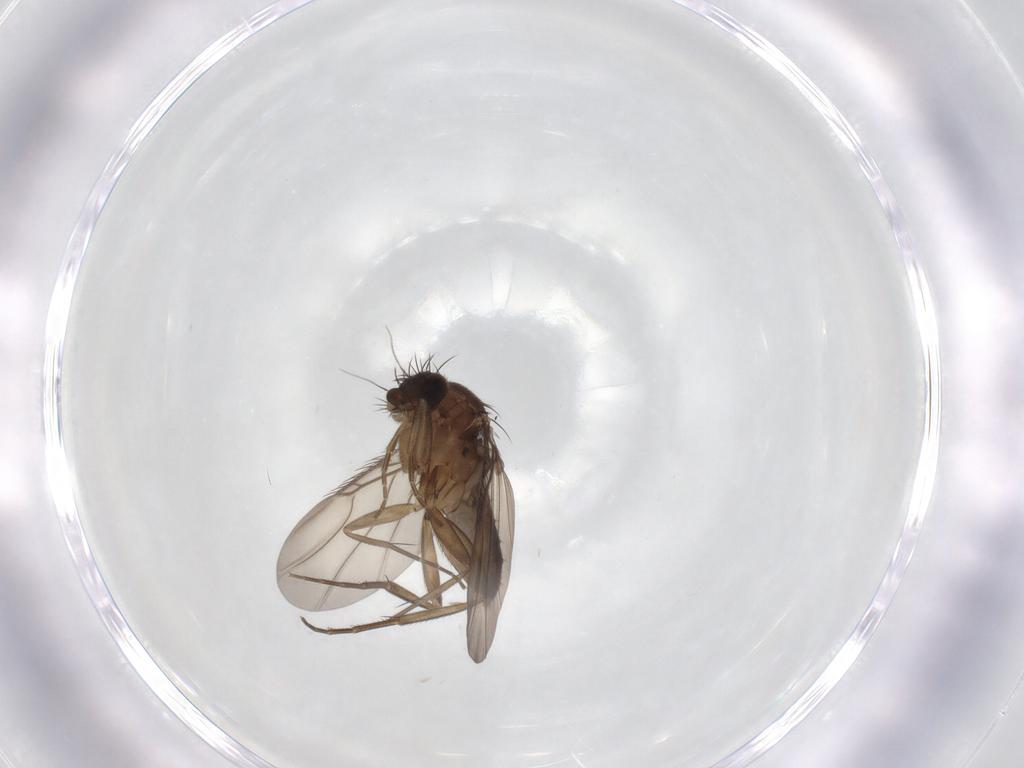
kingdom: Animalia
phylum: Arthropoda
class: Insecta
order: Diptera
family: Phoridae
